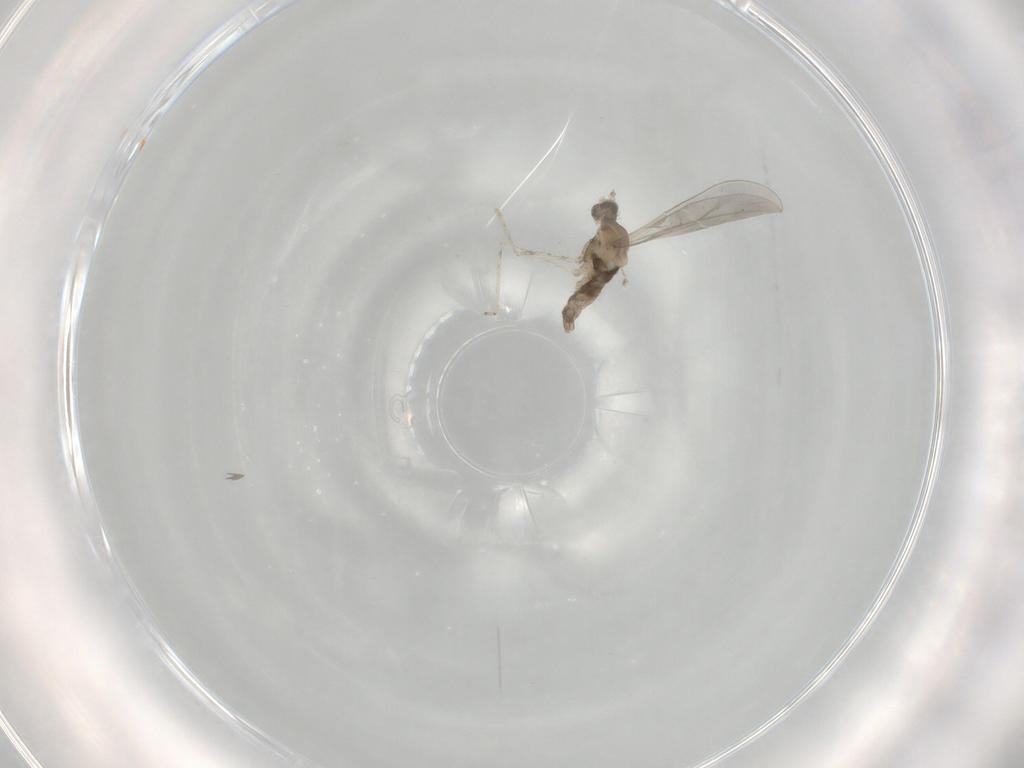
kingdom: Animalia
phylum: Arthropoda
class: Insecta
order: Diptera
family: Cecidomyiidae
